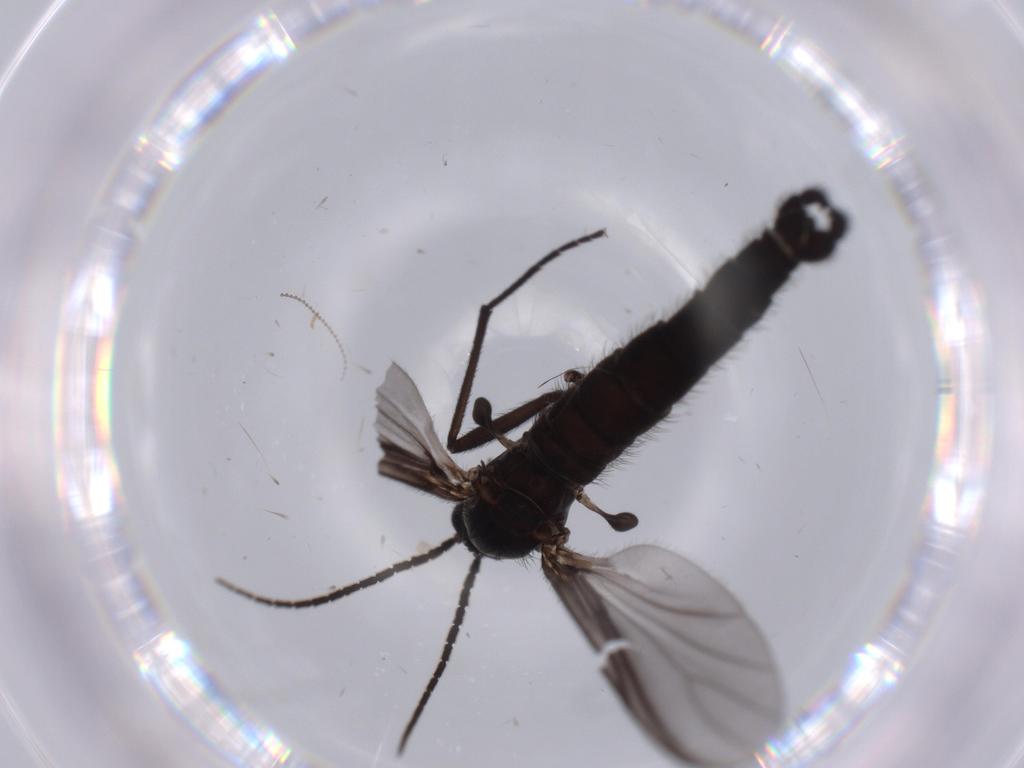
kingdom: Animalia
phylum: Arthropoda
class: Insecta
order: Diptera
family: Cecidomyiidae
